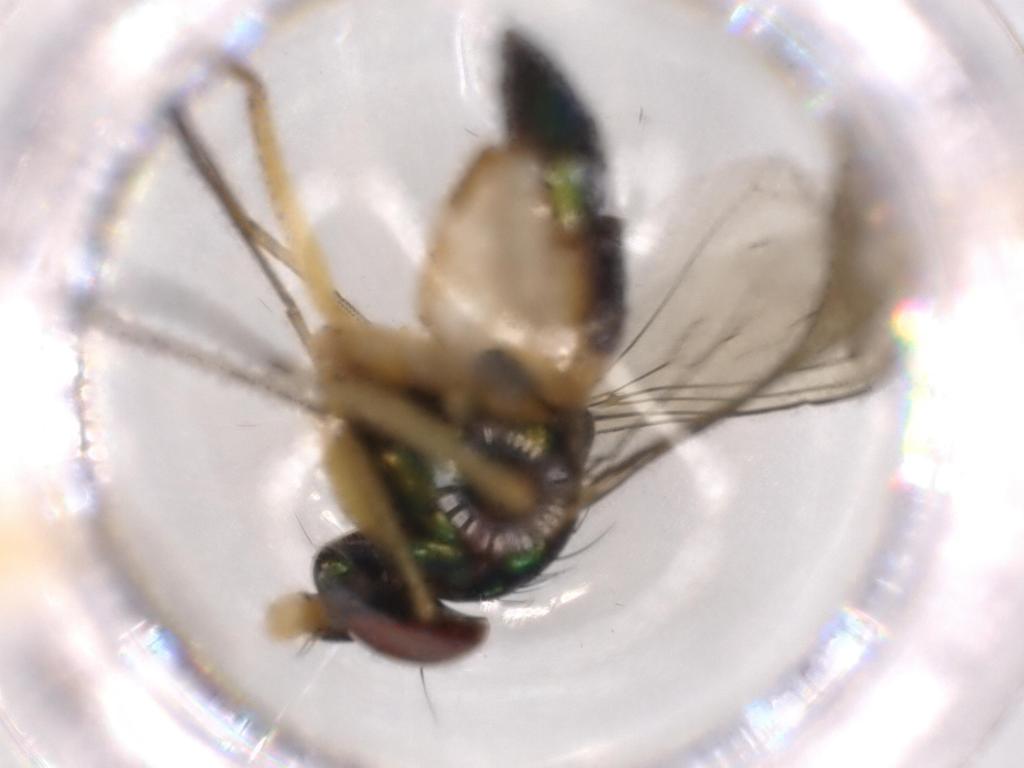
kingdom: Animalia
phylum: Arthropoda
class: Insecta
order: Diptera
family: Dolichopodidae
